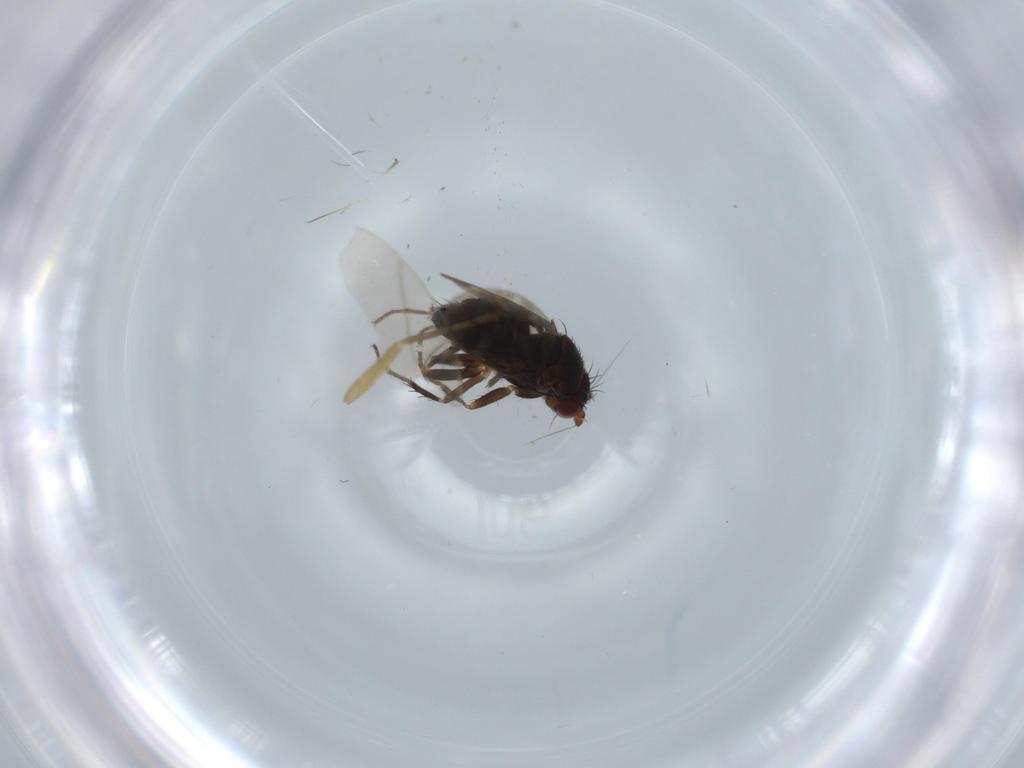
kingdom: Animalia
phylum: Arthropoda
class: Insecta
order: Diptera
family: Sphaeroceridae
